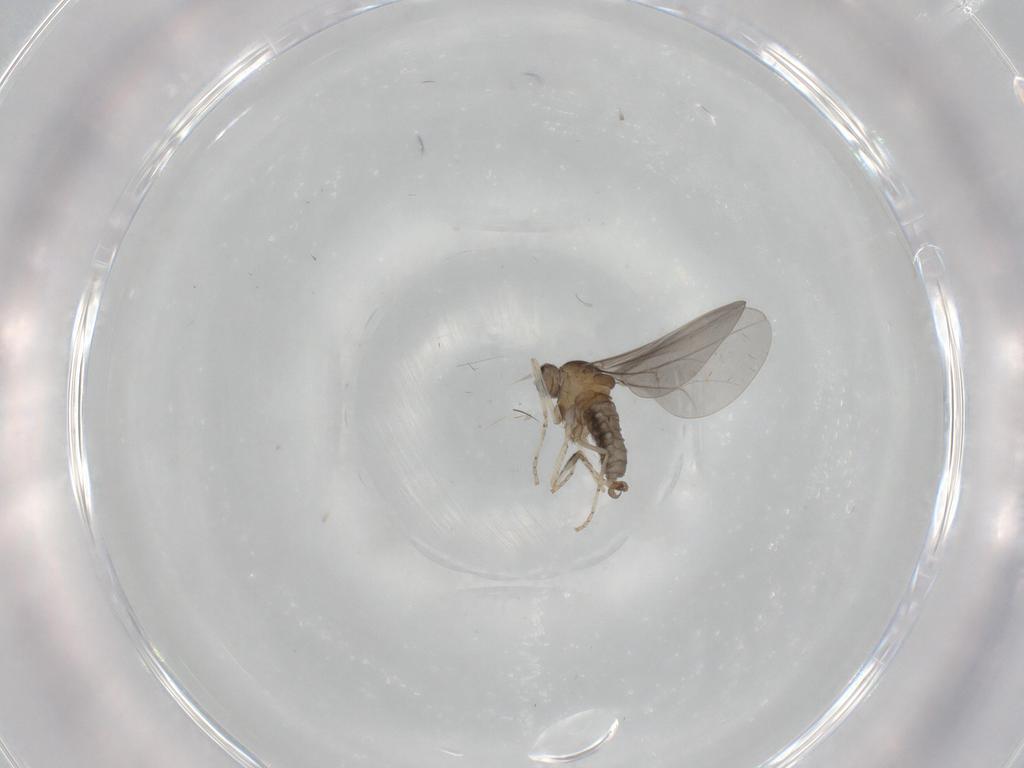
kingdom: Animalia
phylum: Arthropoda
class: Insecta
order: Diptera
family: Cecidomyiidae
